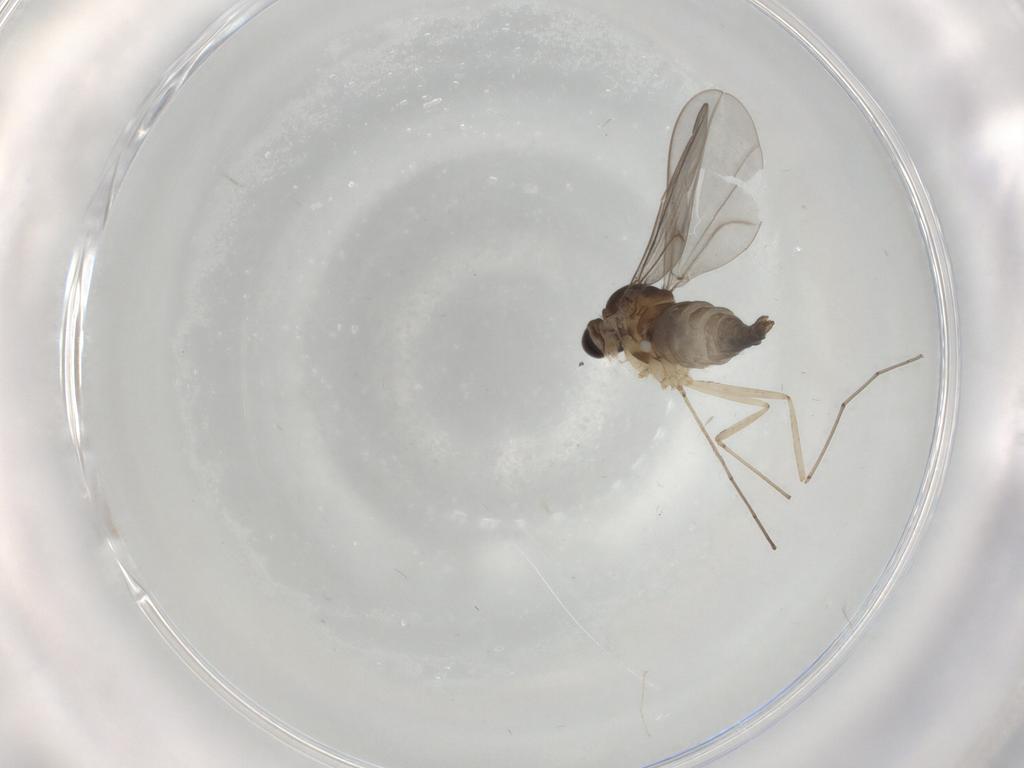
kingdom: Animalia
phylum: Arthropoda
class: Insecta
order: Diptera
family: Cecidomyiidae
